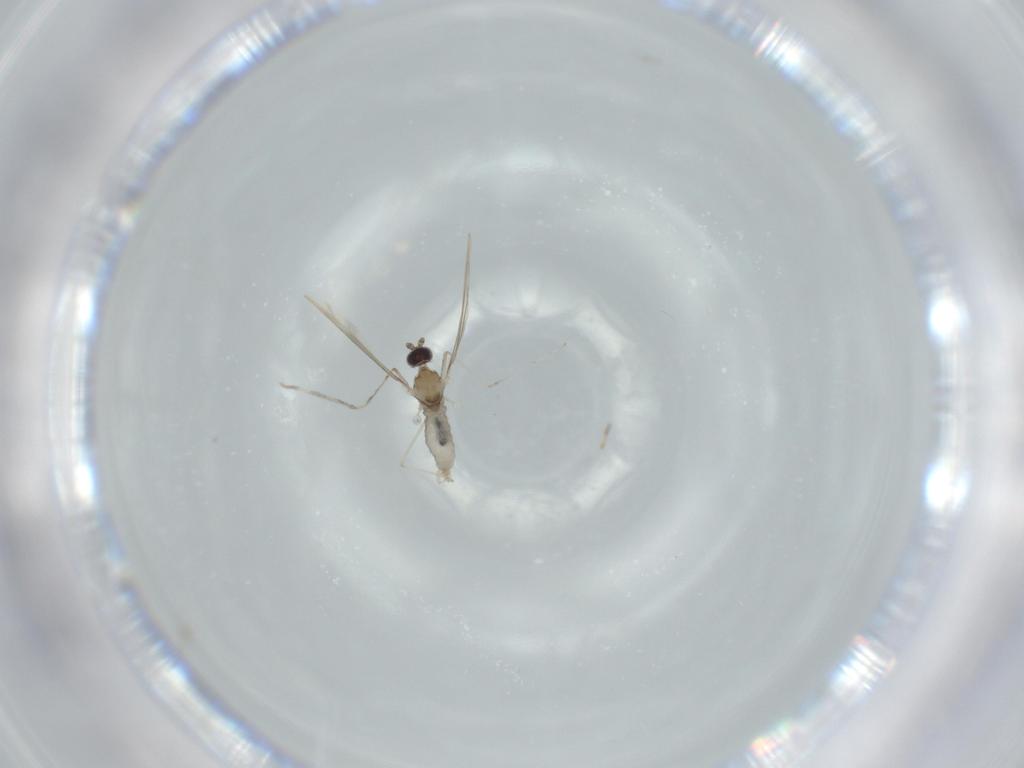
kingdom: Animalia
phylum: Arthropoda
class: Insecta
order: Diptera
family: Cecidomyiidae
